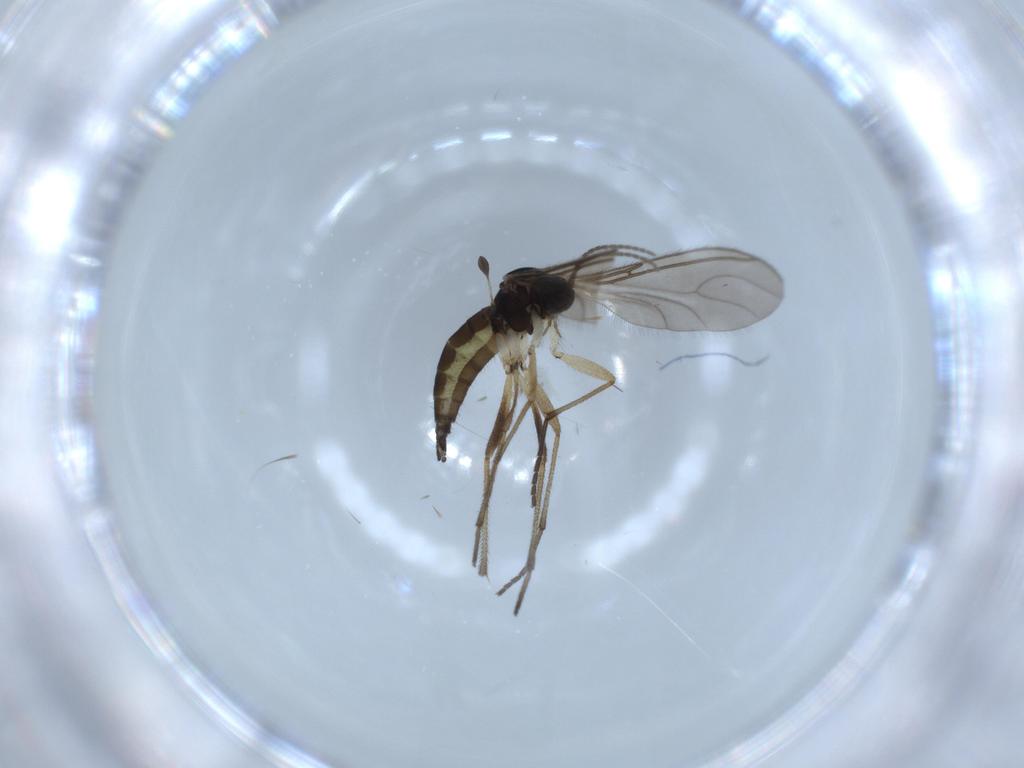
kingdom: Animalia
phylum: Arthropoda
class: Insecta
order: Diptera
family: Sciaridae
